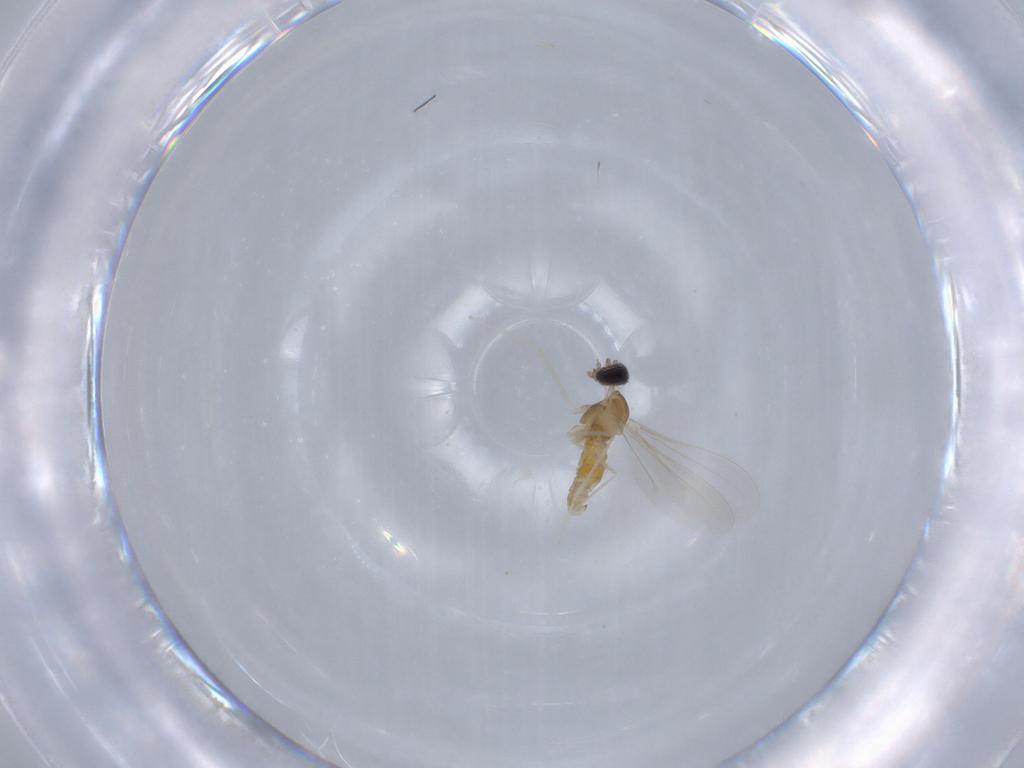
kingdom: Animalia
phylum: Arthropoda
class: Insecta
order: Diptera
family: Cecidomyiidae
